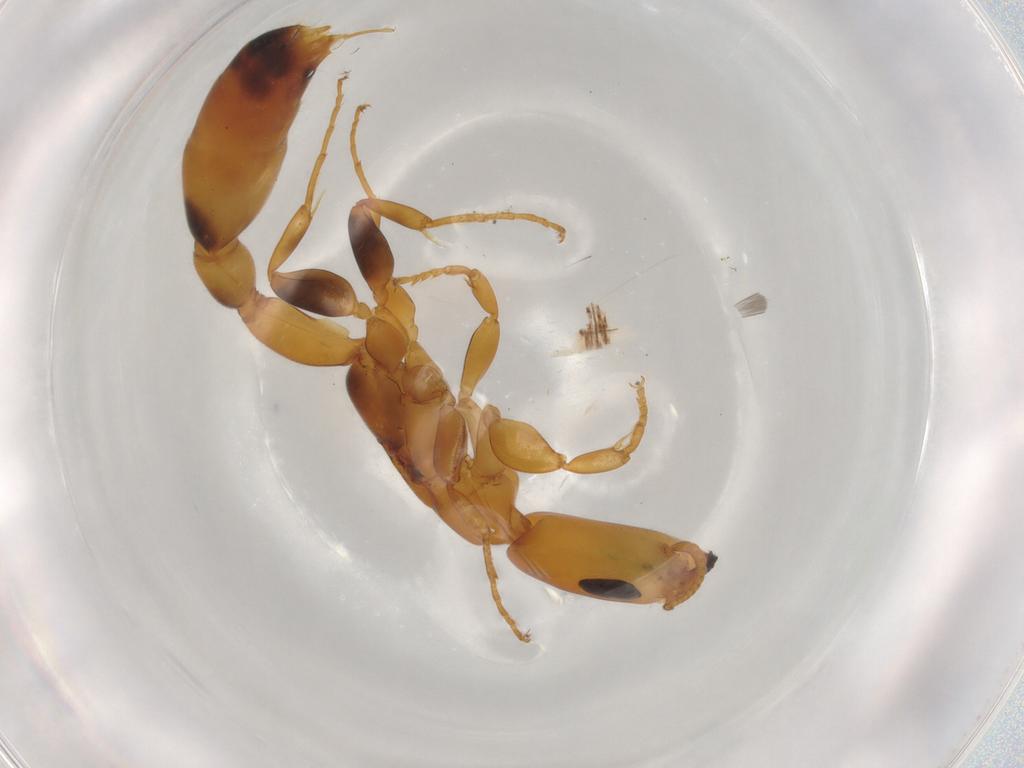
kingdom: Animalia
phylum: Arthropoda
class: Insecta
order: Hymenoptera
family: Formicidae
